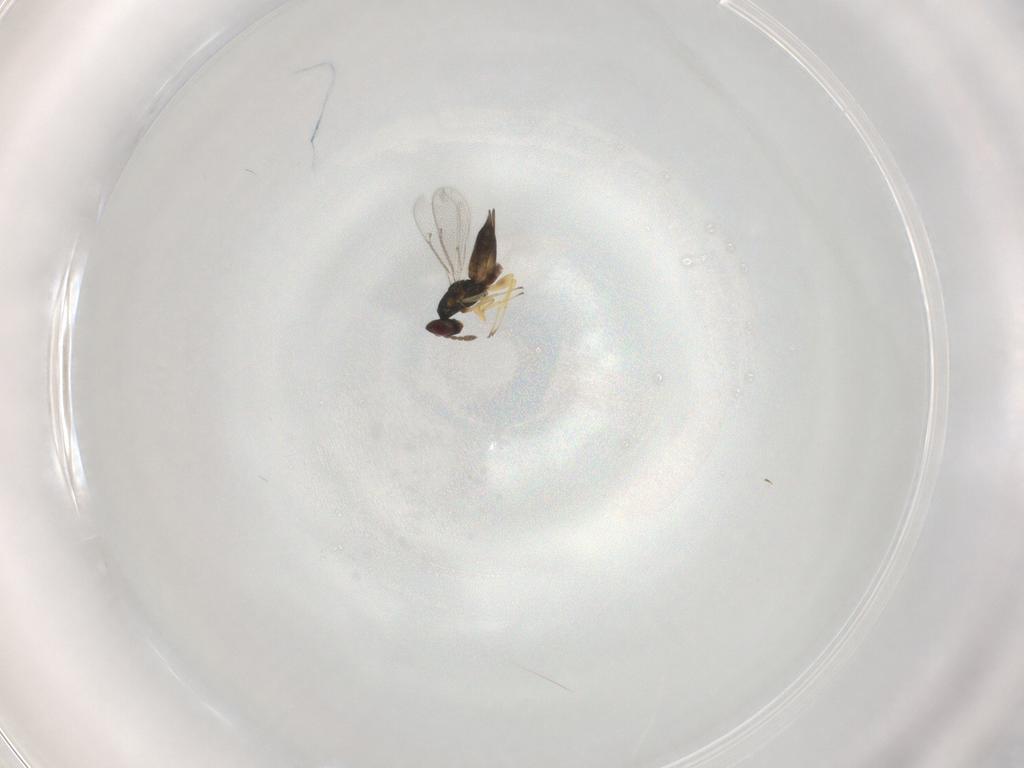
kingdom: Animalia
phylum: Arthropoda
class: Insecta
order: Hymenoptera
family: Eulophidae
